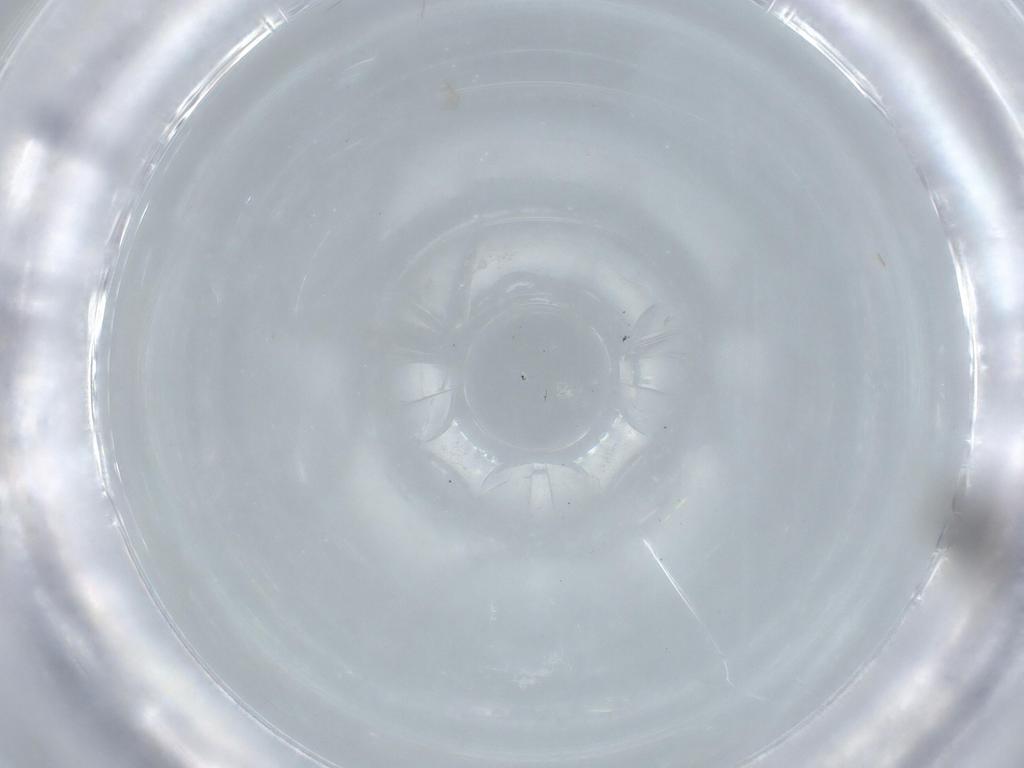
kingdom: Animalia
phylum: Arthropoda
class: Insecta
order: Diptera
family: Chironomidae
